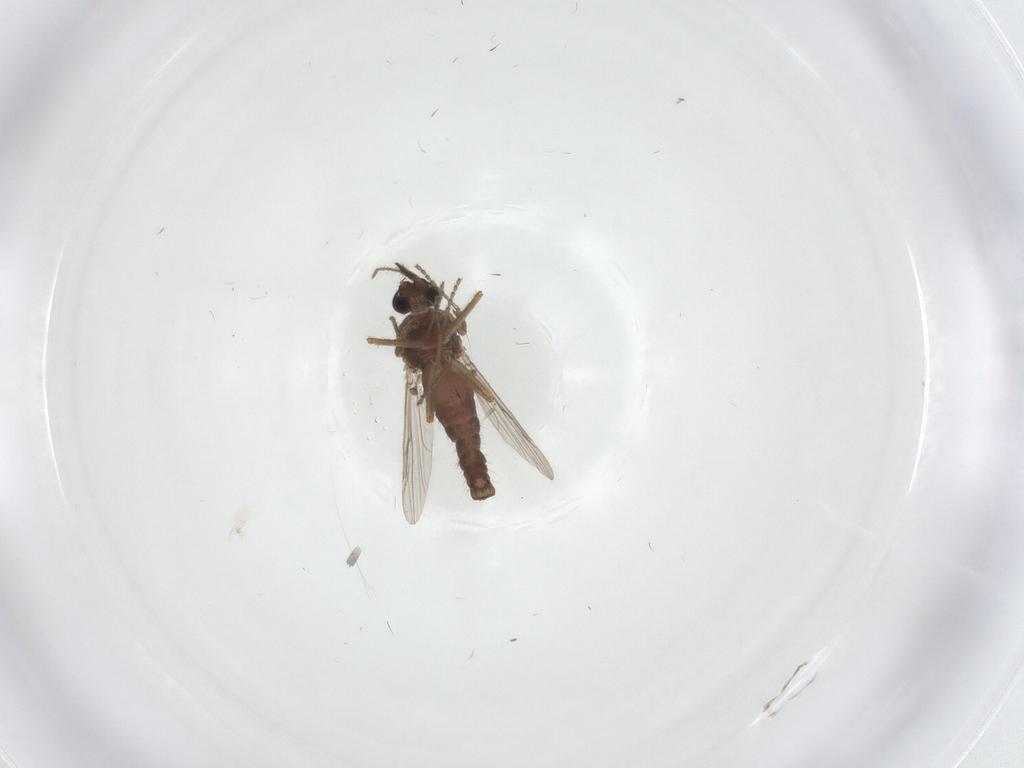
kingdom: Animalia
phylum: Arthropoda
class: Insecta
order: Diptera
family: Ceratopogonidae
